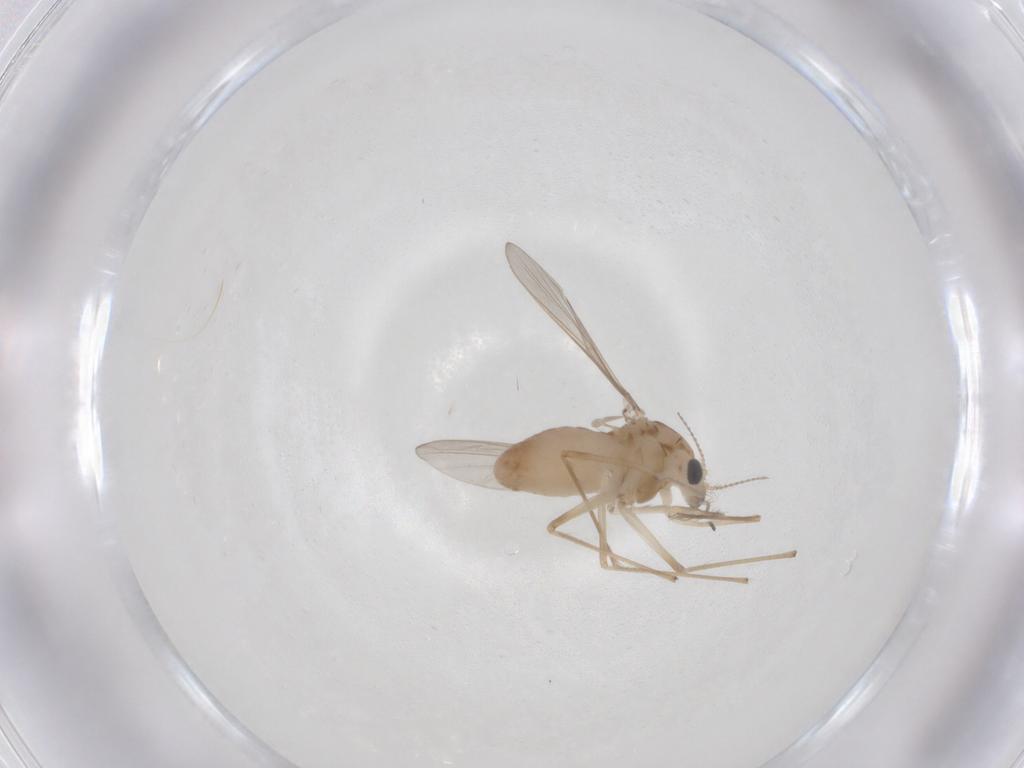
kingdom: Animalia
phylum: Arthropoda
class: Insecta
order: Diptera
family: Chironomidae
